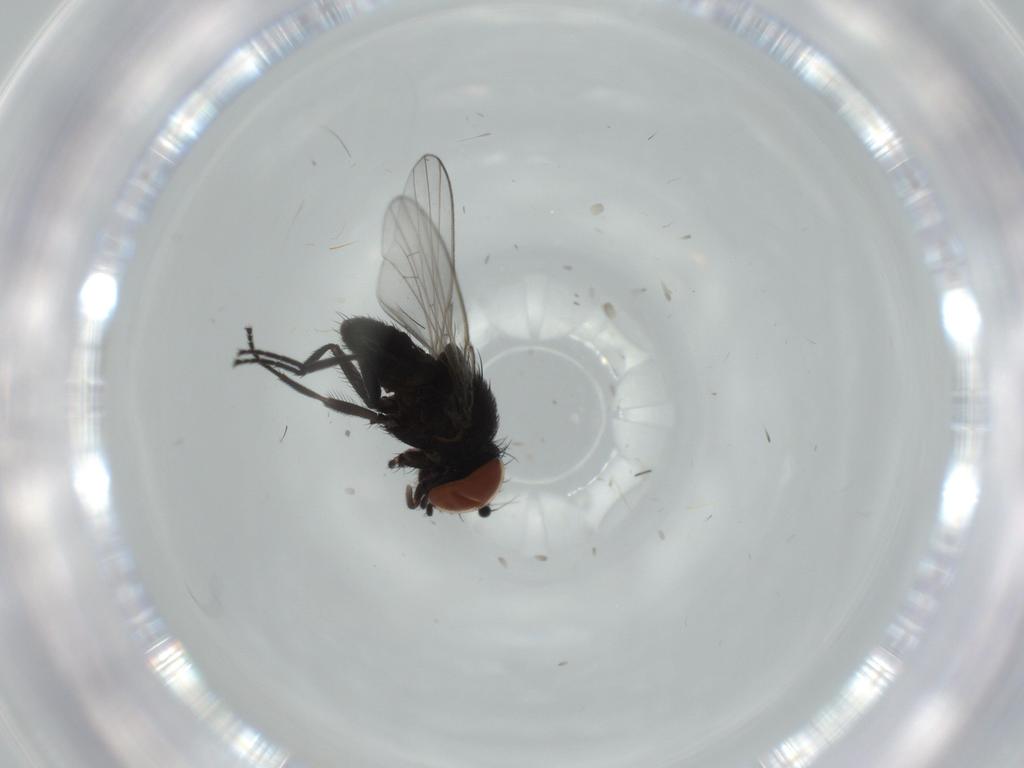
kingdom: Animalia
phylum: Arthropoda
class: Insecta
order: Diptera
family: Milichiidae
